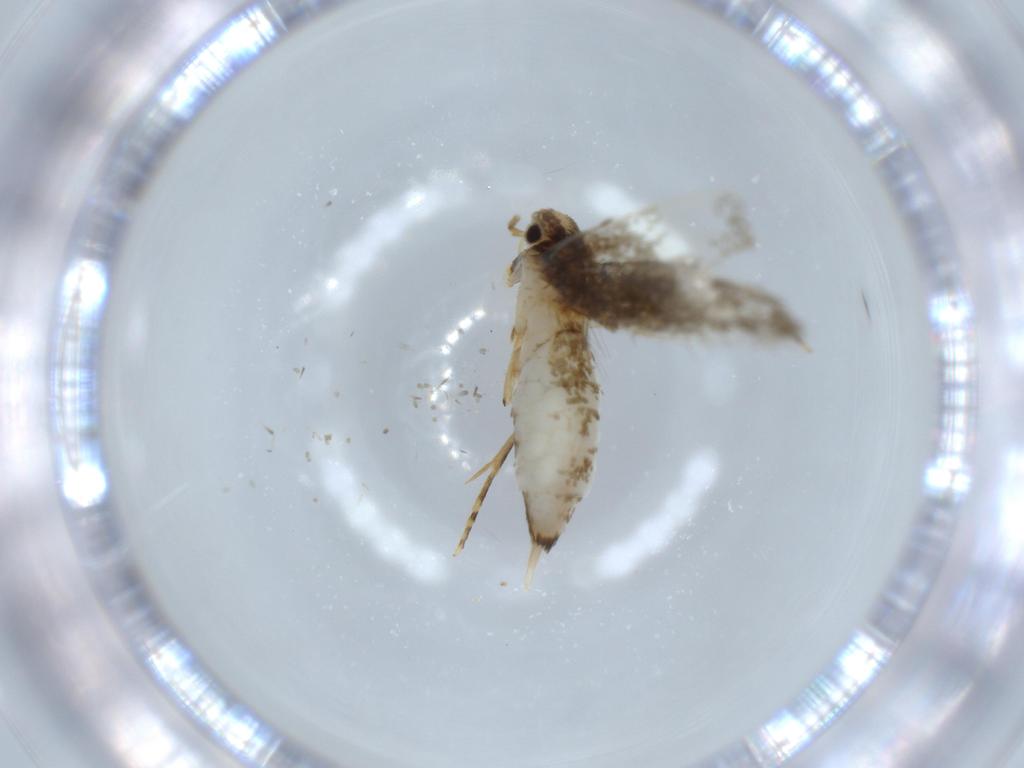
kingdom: Animalia
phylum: Arthropoda
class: Insecta
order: Lepidoptera
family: Tineidae
